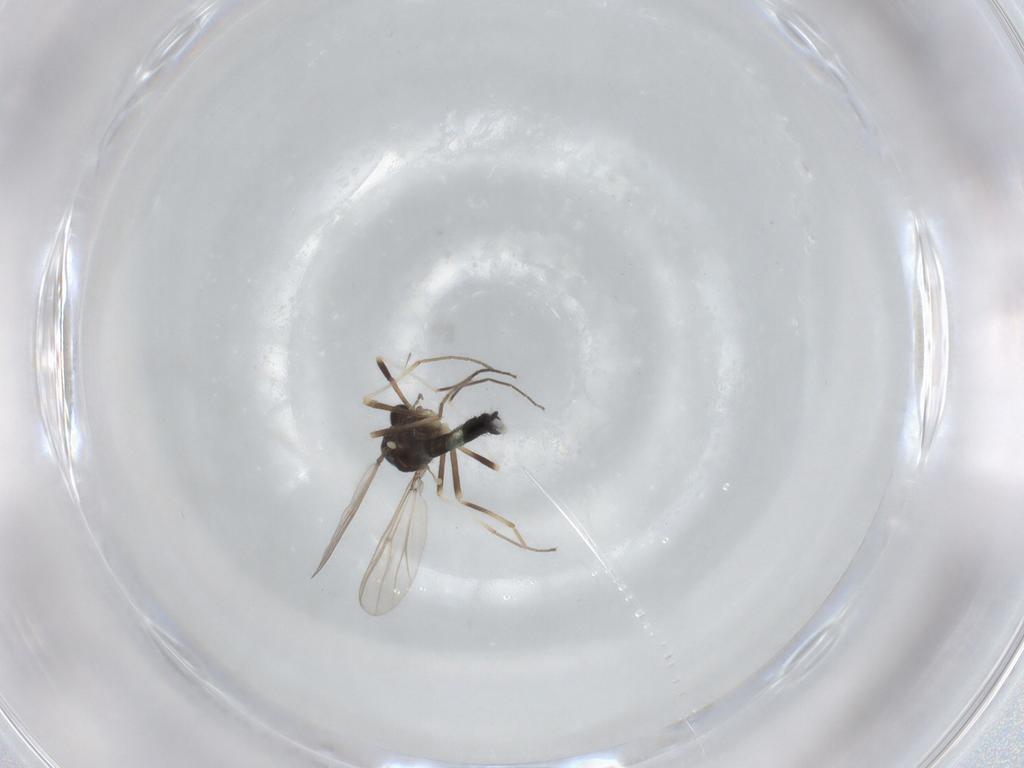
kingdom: Animalia
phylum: Arthropoda
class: Insecta
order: Diptera
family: Chironomidae
